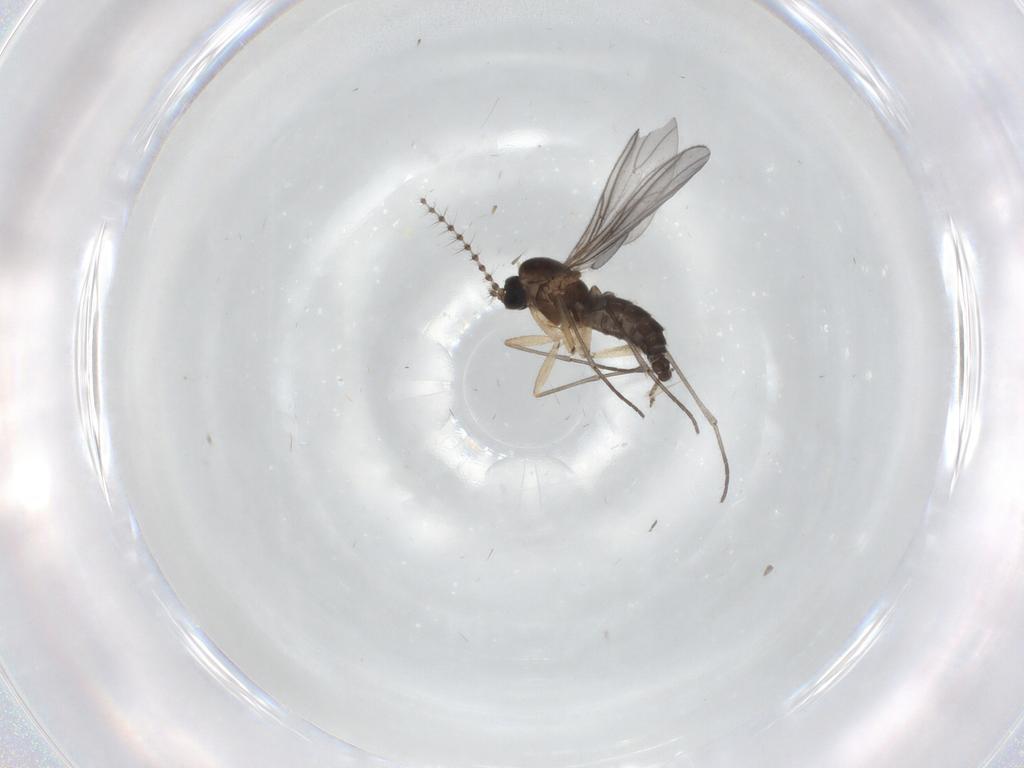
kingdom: Animalia
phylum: Arthropoda
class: Insecta
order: Diptera
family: Sciaridae
